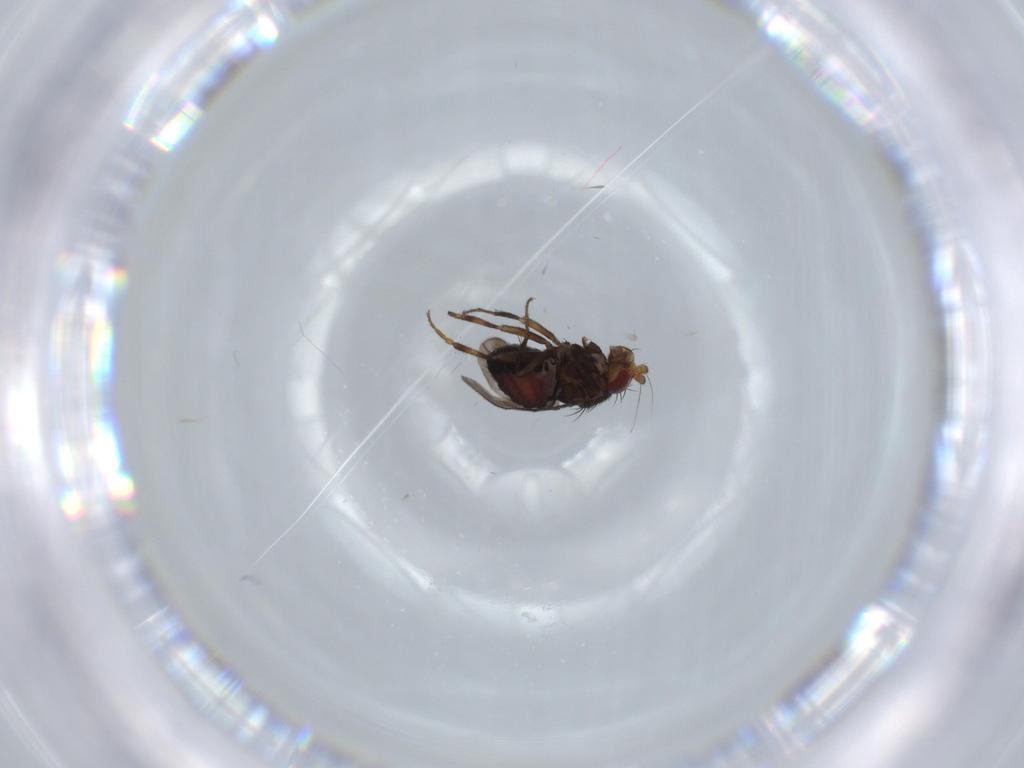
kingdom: Animalia
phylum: Arthropoda
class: Insecta
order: Diptera
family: Sphaeroceridae
